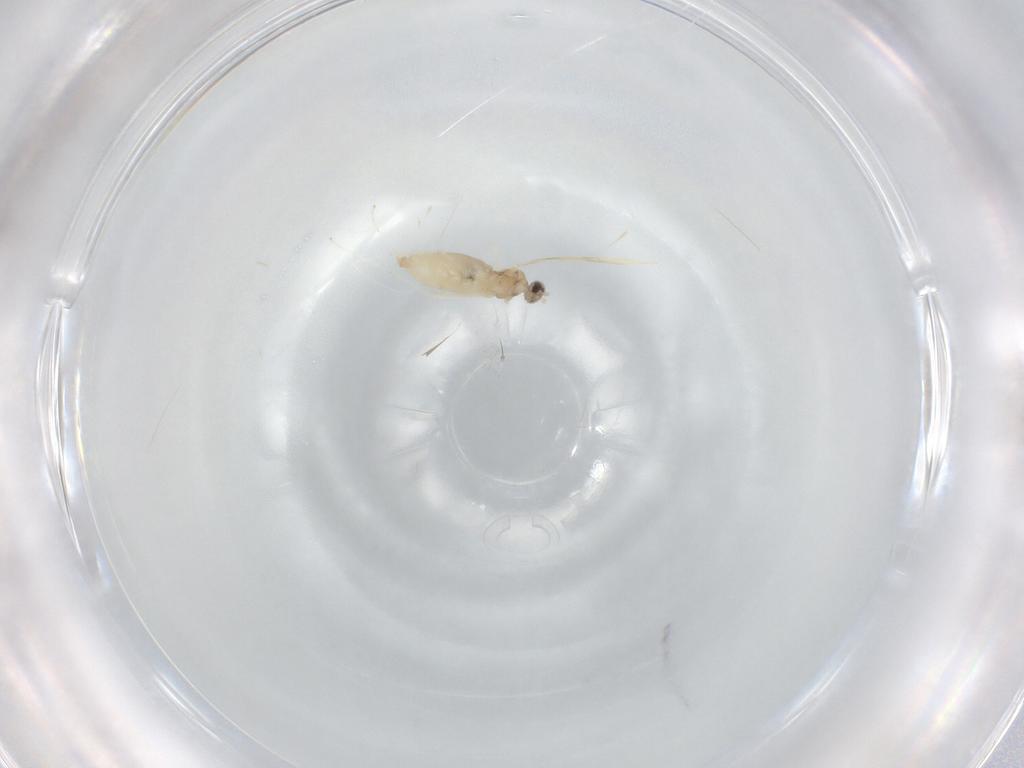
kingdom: Animalia
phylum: Arthropoda
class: Insecta
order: Diptera
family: Cecidomyiidae
